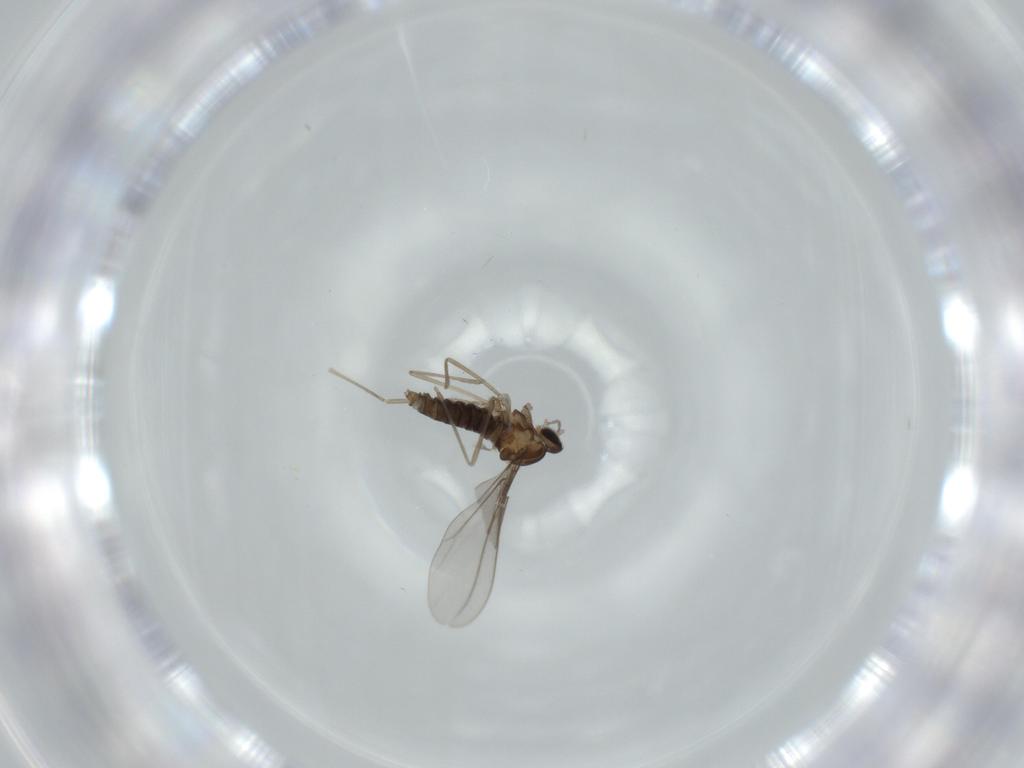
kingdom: Animalia
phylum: Arthropoda
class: Insecta
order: Diptera
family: Cecidomyiidae
